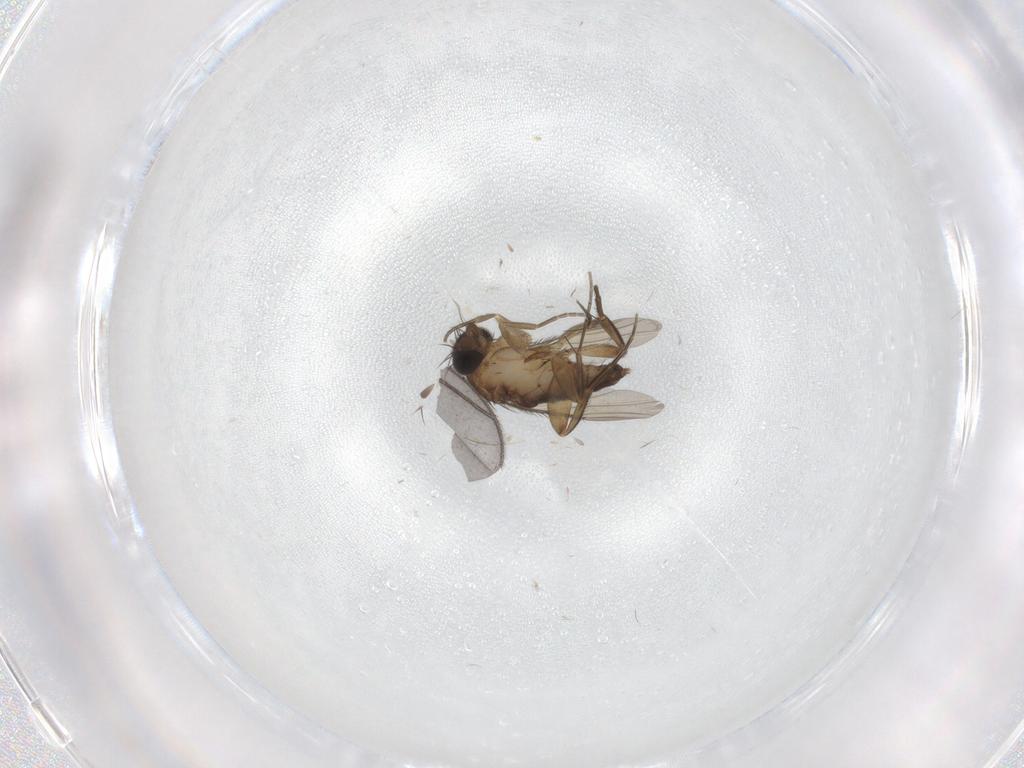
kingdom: Animalia
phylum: Arthropoda
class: Insecta
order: Diptera
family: Phoridae
